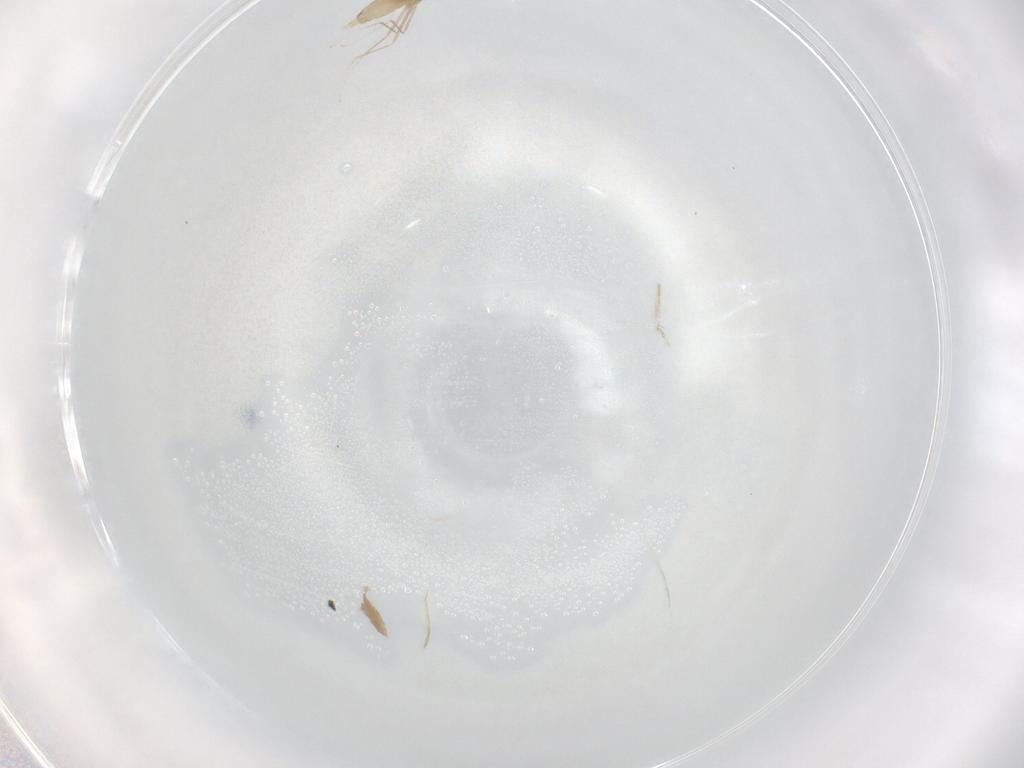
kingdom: Animalia
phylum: Arthropoda
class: Insecta
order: Diptera
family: Cecidomyiidae
